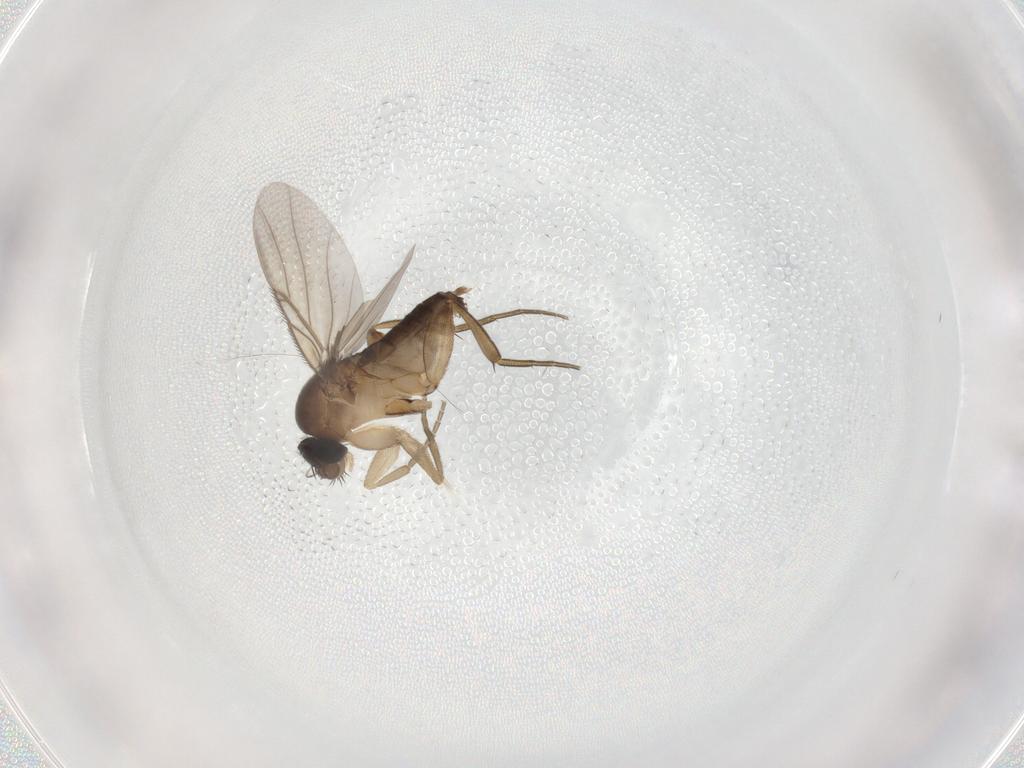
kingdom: Animalia
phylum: Arthropoda
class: Insecta
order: Diptera
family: Phoridae
